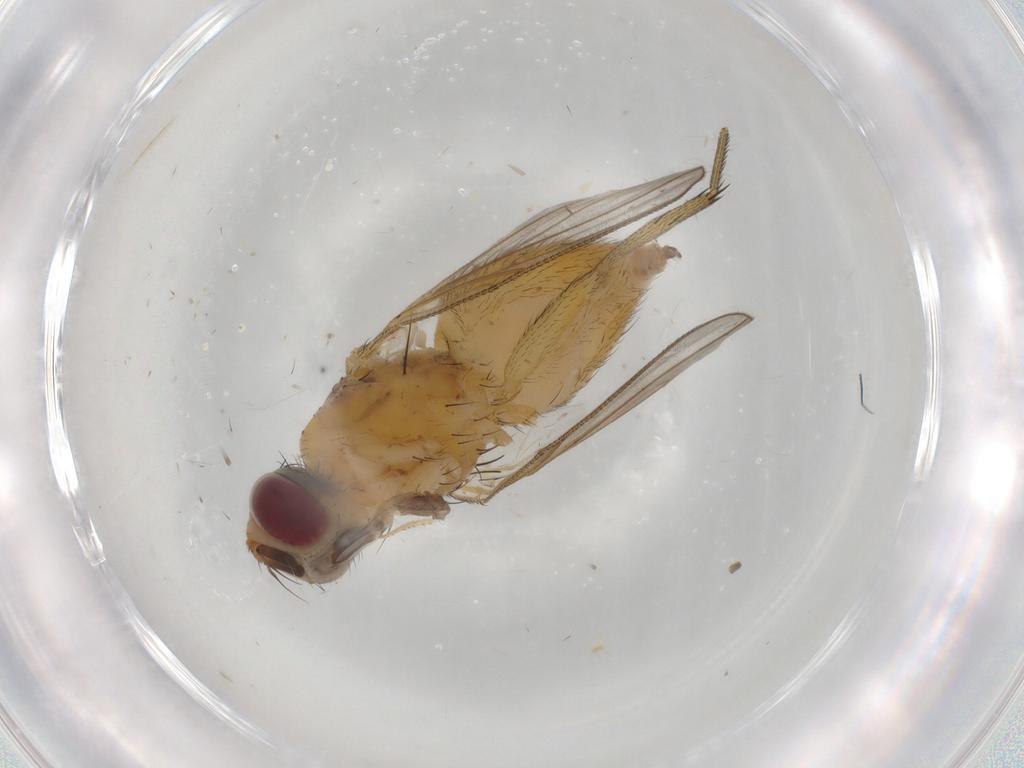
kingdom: Animalia
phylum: Arthropoda
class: Insecta
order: Diptera
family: Muscidae
